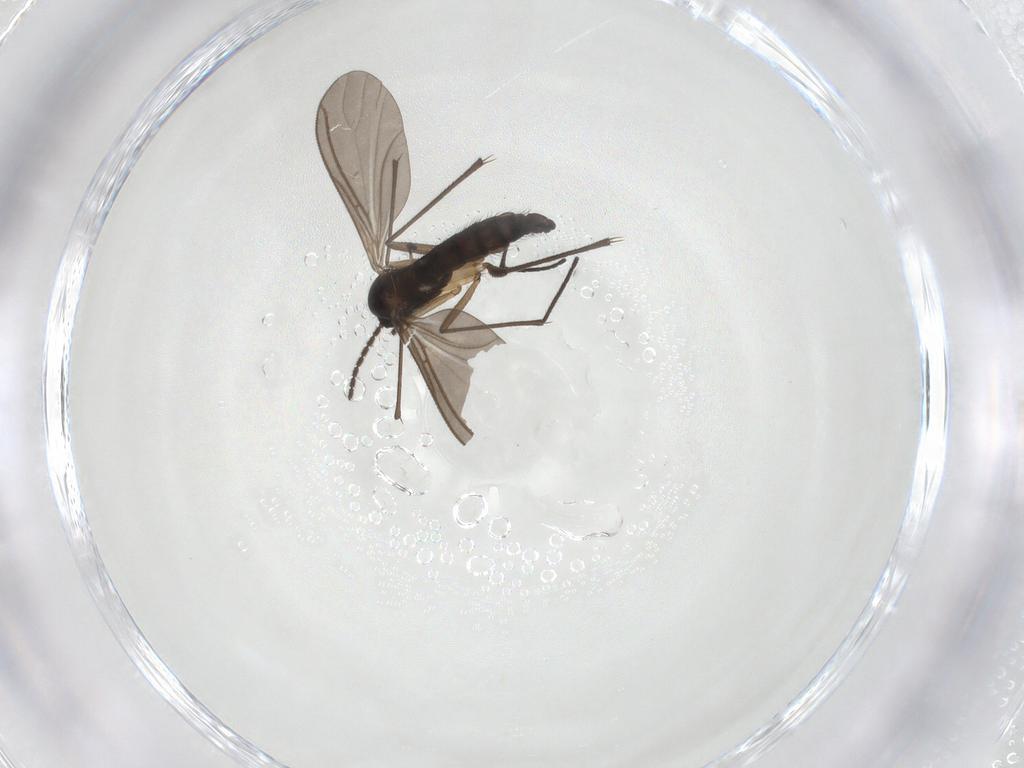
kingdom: Animalia
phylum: Arthropoda
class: Insecta
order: Diptera
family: Sciaridae
